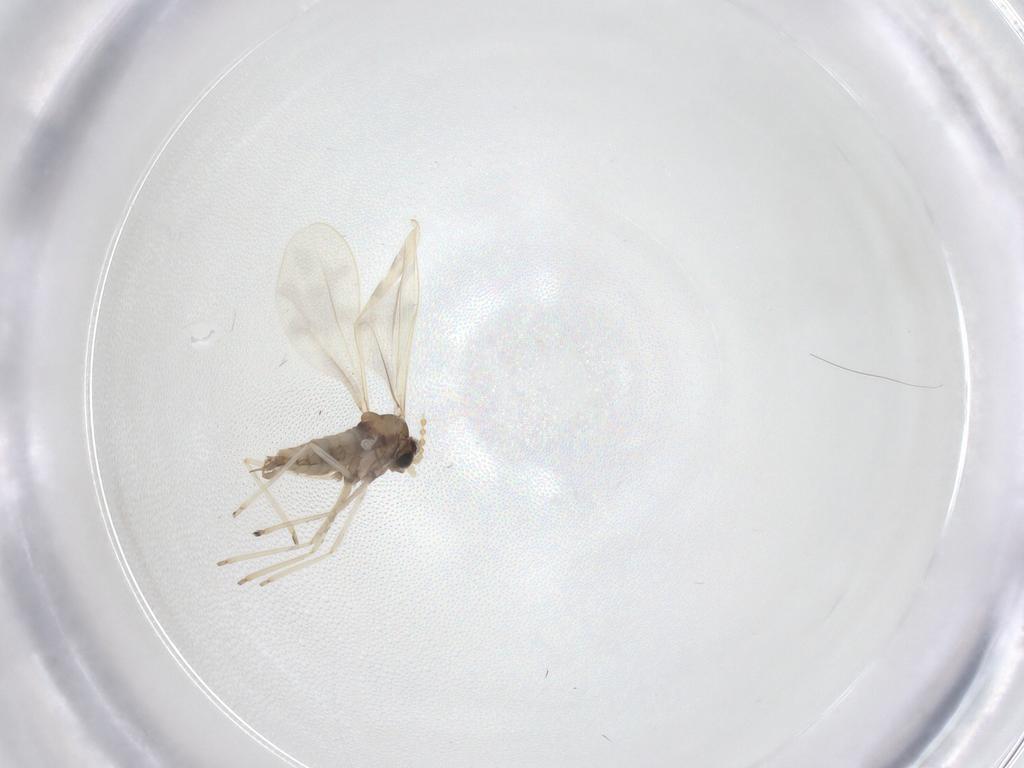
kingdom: Animalia
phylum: Arthropoda
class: Insecta
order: Diptera
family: Cecidomyiidae
